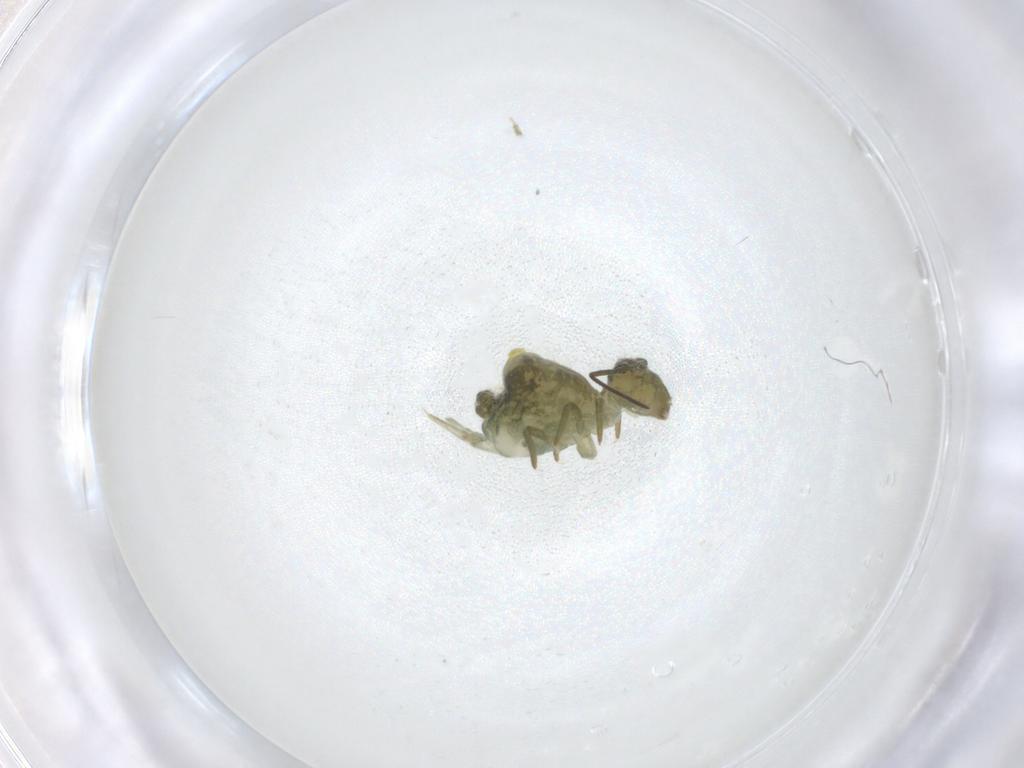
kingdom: Animalia
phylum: Arthropoda
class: Collembola
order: Symphypleona
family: Sminthuridae
